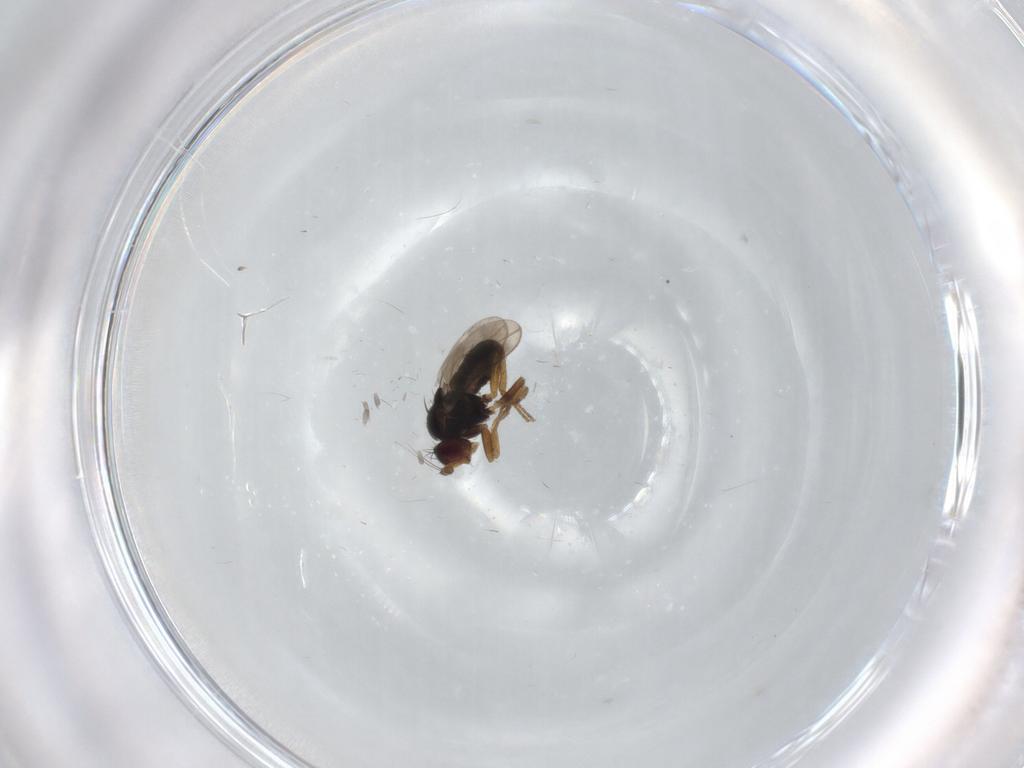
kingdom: Animalia
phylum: Arthropoda
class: Insecta
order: Diptera
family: Sphaeroceridae
